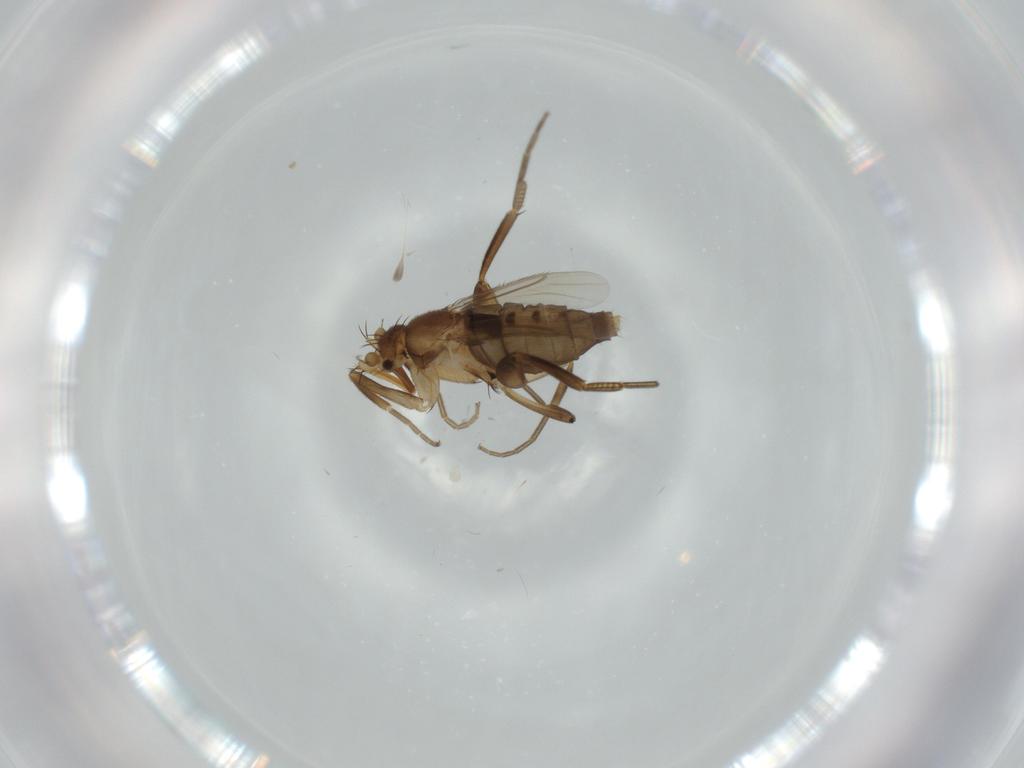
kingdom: Animalia
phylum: Arthropoda
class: Insecta
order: Diptera
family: Phoridae
